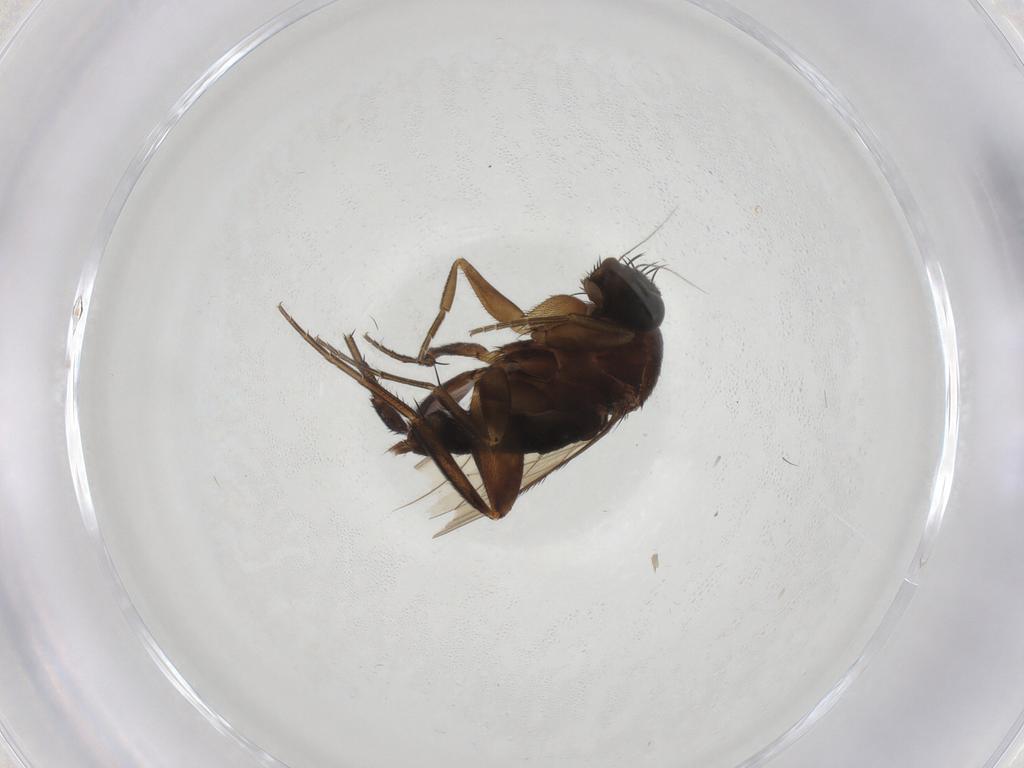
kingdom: Animalia
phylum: Arthropoda
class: Insecta
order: Diptera
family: Phoridae
